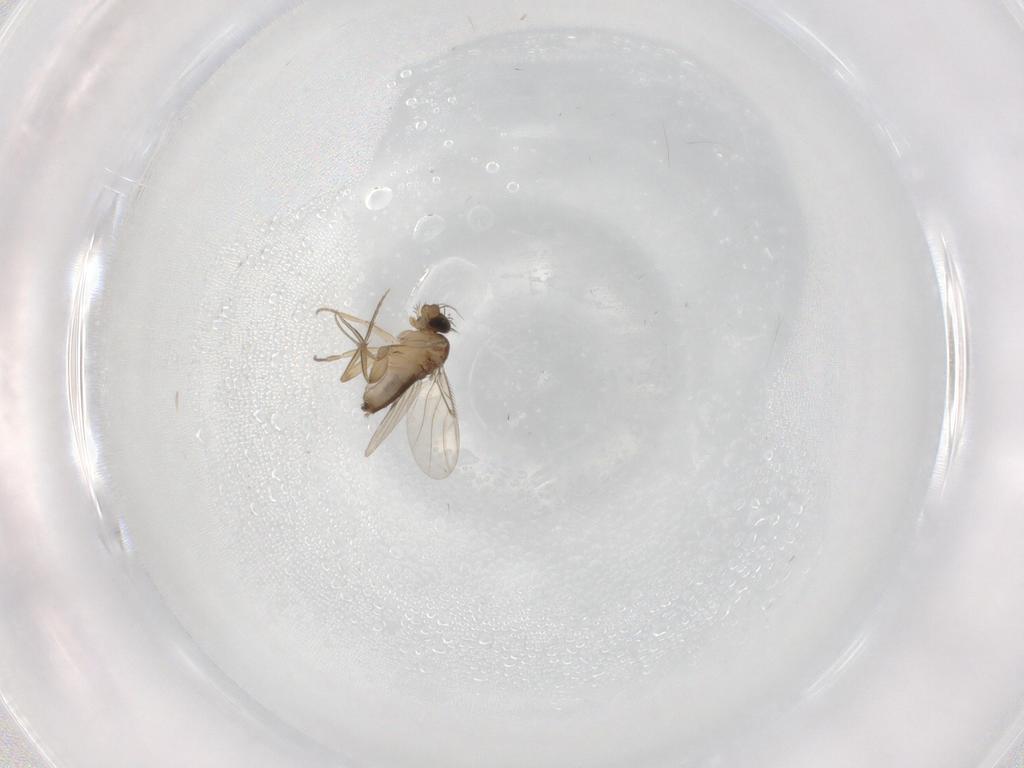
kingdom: Animalia
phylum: Arthropoda
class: Insecta
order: Diptera
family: Phoridae
